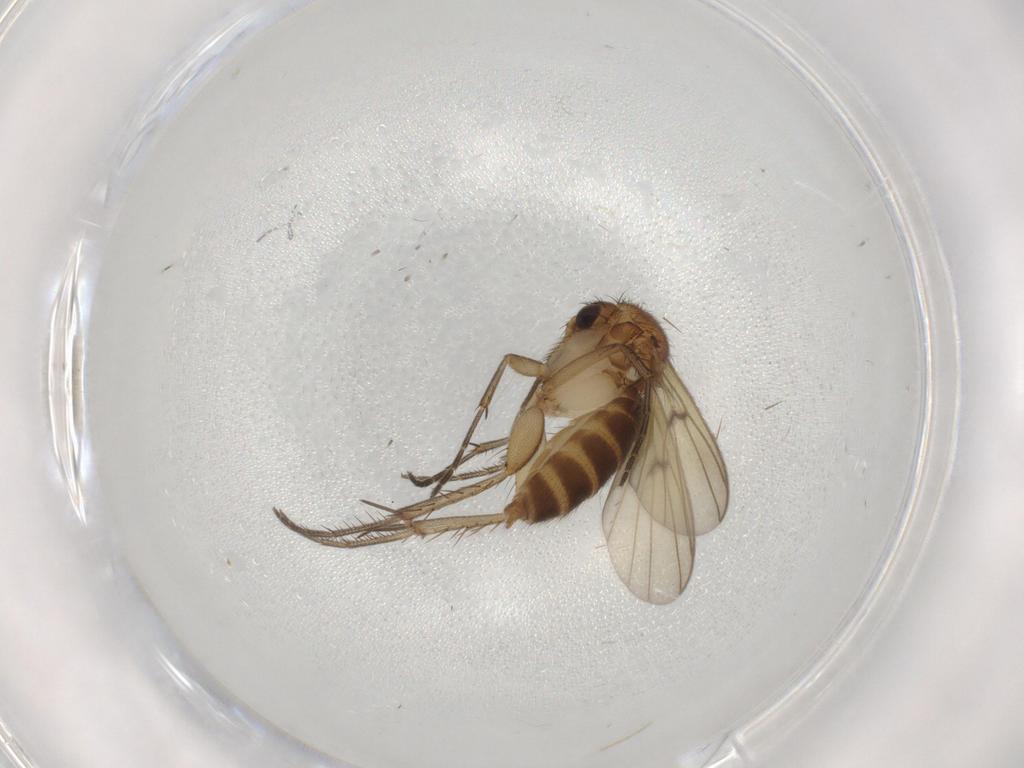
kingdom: Animalia
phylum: Arthropoda
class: Insecta
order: Diptera
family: Mycetophilidae
